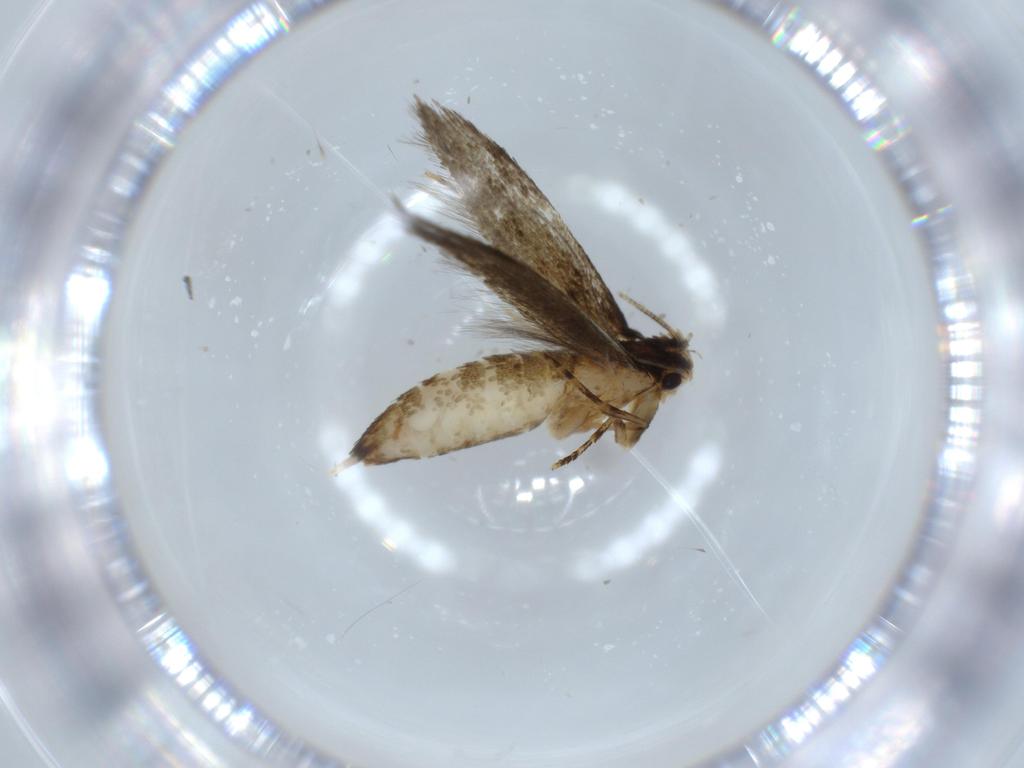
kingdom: Animalia
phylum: Arthropoda
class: Insecta
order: Lepidoptera
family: Tineidae
